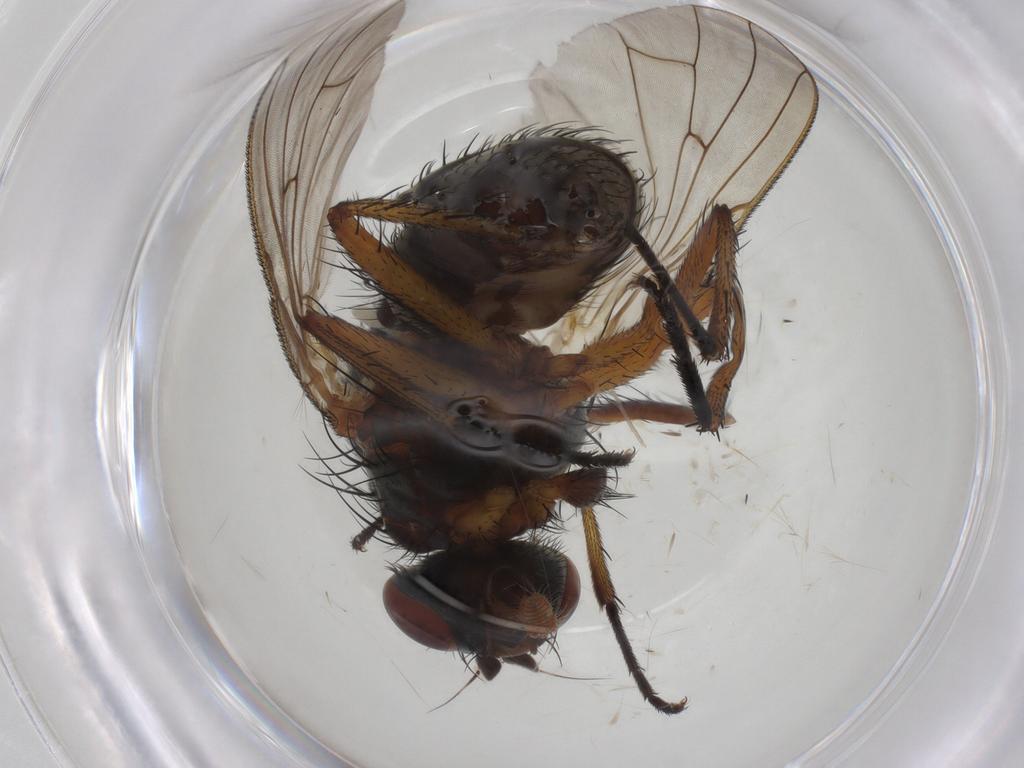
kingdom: Animalia
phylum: Arthropoda
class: Insecta
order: Diptera
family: Anthomyiidae
